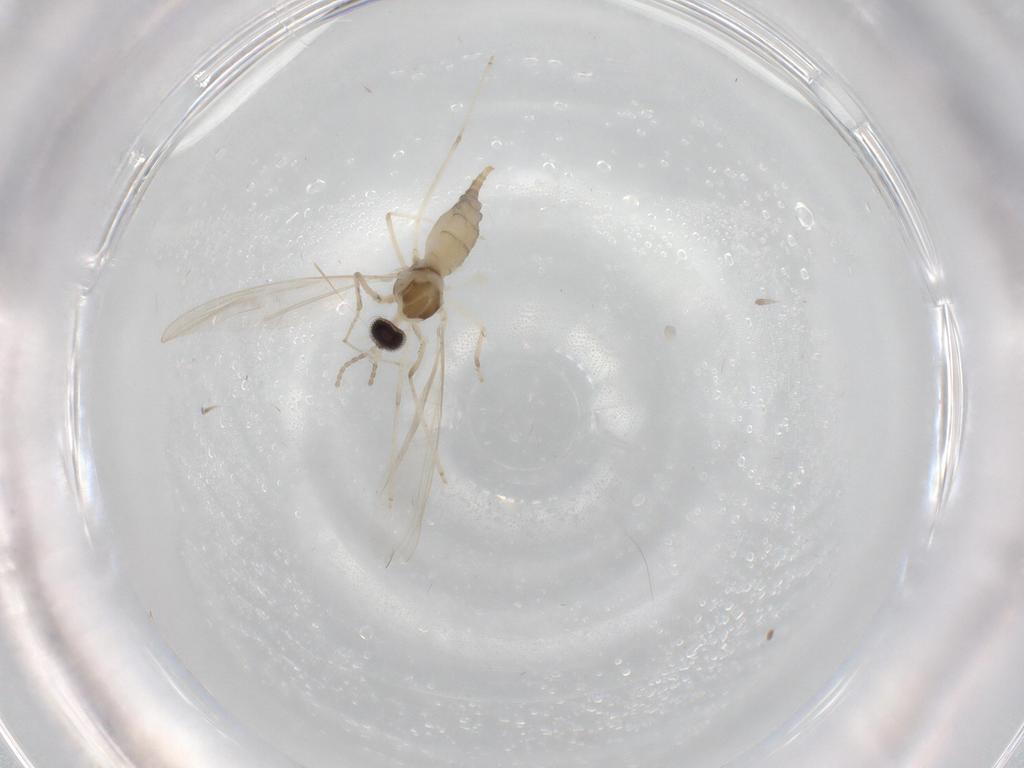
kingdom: Animalia
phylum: Arthropoda
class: Insecta
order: Diptera
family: Cecidomyiidae
